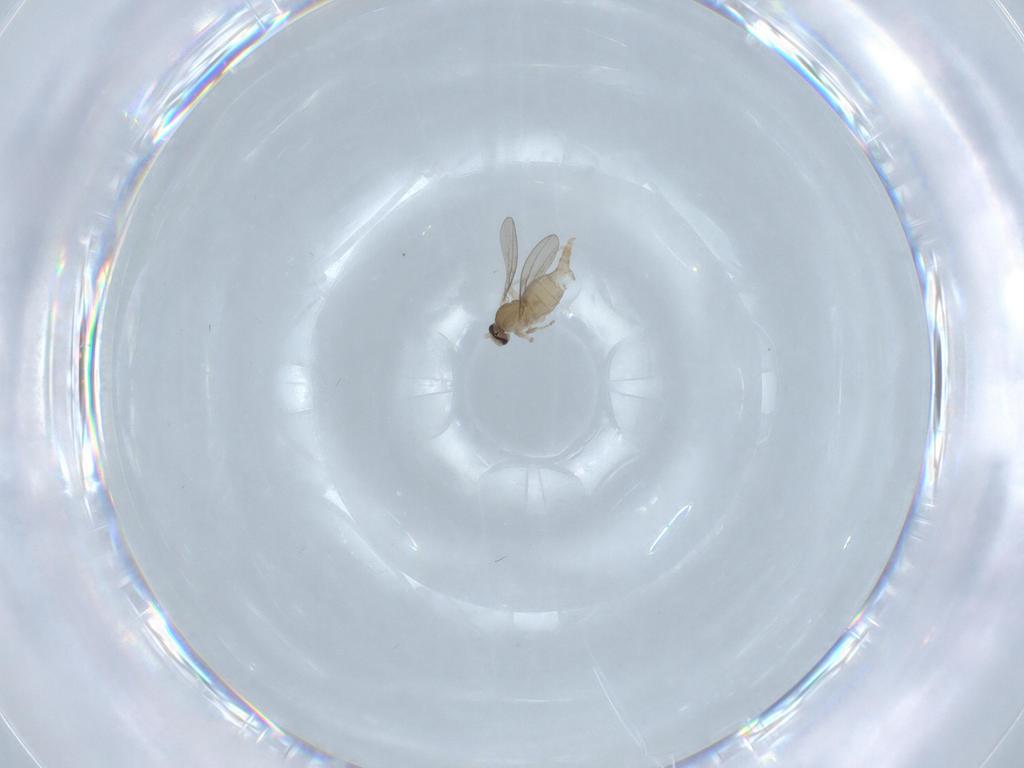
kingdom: Animalia
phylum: Arthropoda
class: Insecta
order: Diptera
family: Cecidomyiidae
